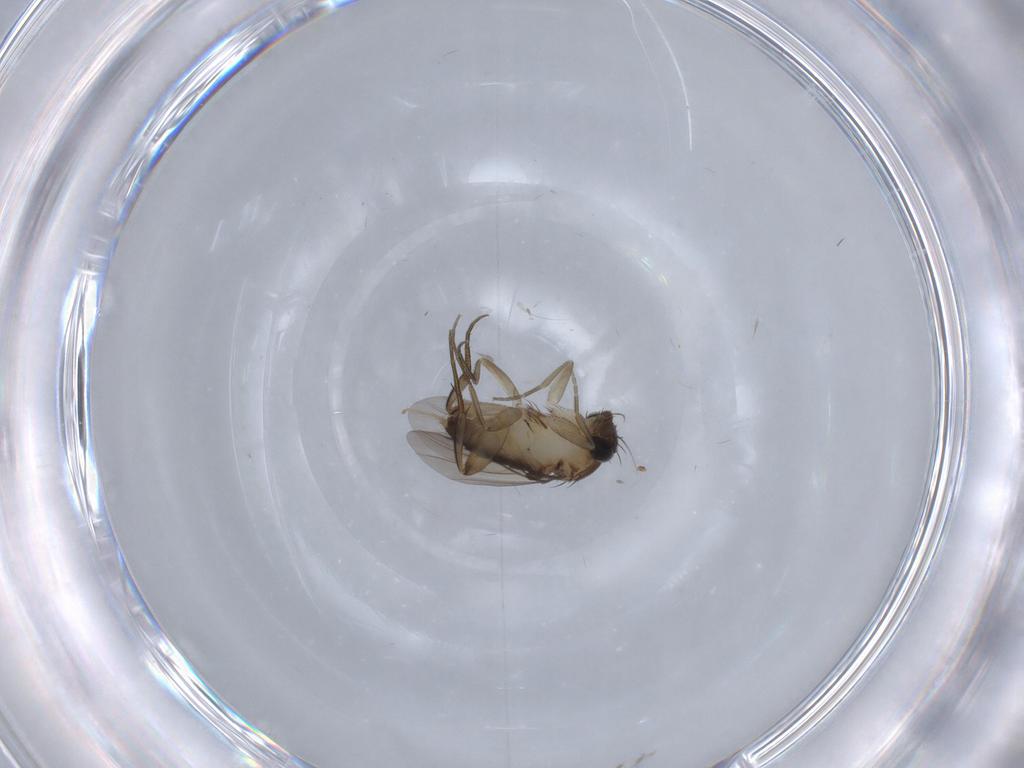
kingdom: Animalia
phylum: Arthropoda
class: Insecta
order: Diptera
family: Phoridae
